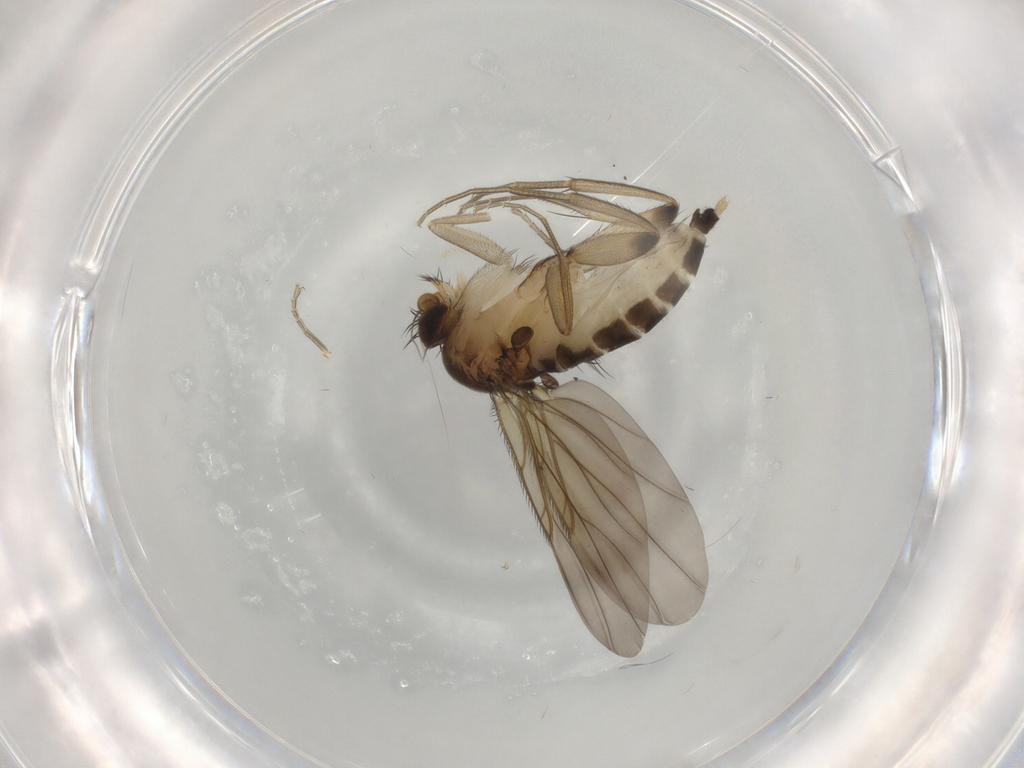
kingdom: Animalia
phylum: Arthropoda
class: Insecta
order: Diptera
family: Phoridae
